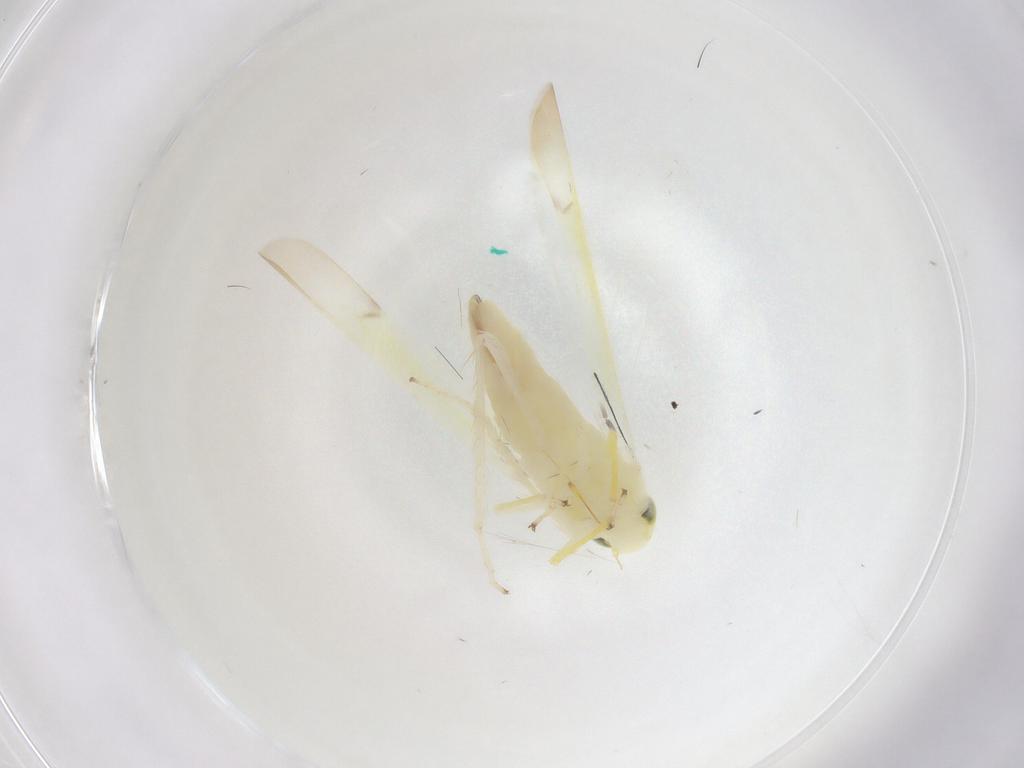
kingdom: Animalia
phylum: Arthropoda
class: Insecta
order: Hemiptera
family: Cicadellidae
